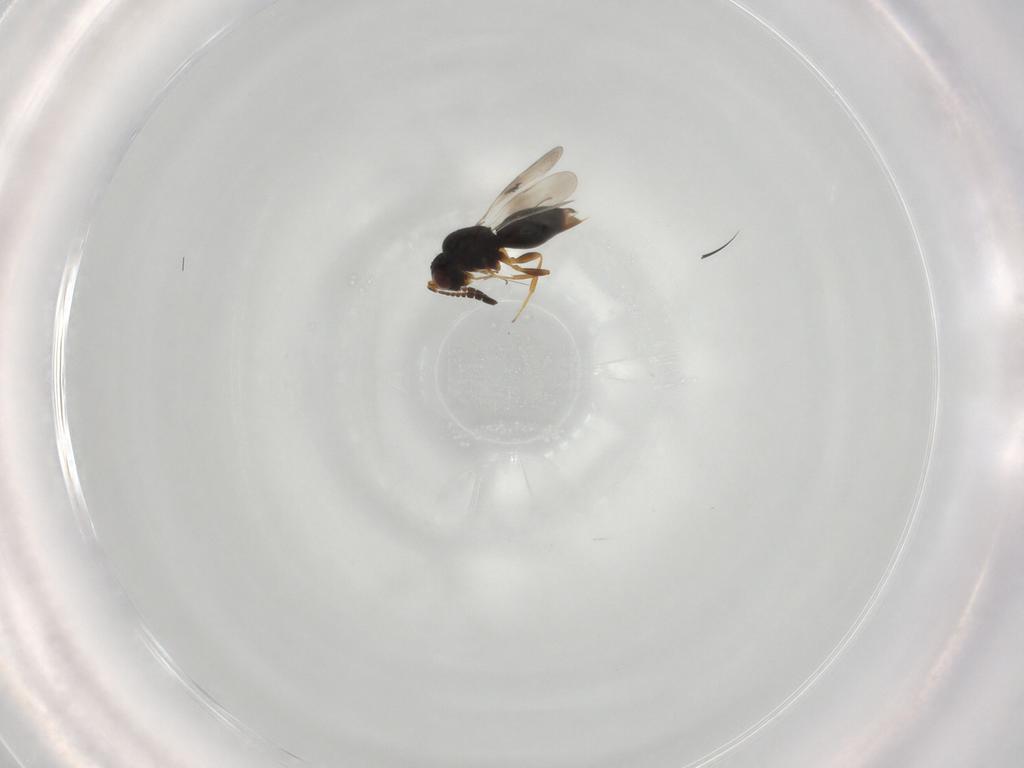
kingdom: Animalia
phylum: Arthropoda
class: Insecta
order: Hymenoptera
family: Ceraphronidae
